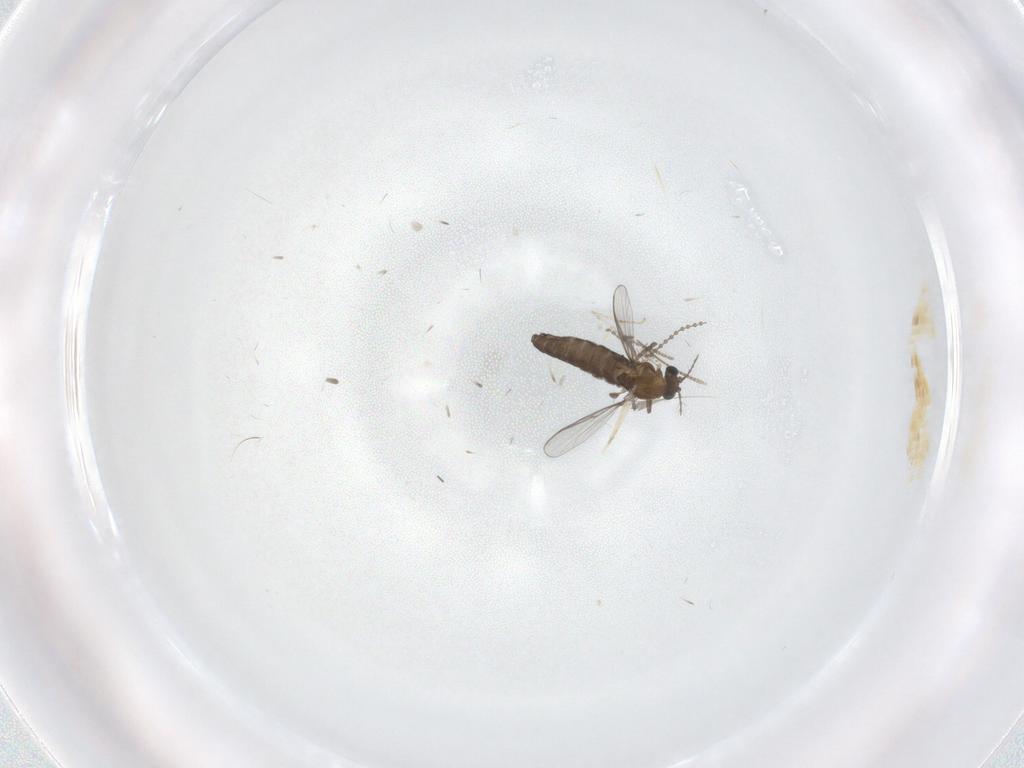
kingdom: Animalia
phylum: Arthropoda
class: Insecta
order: Diptera
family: Chironomidae
